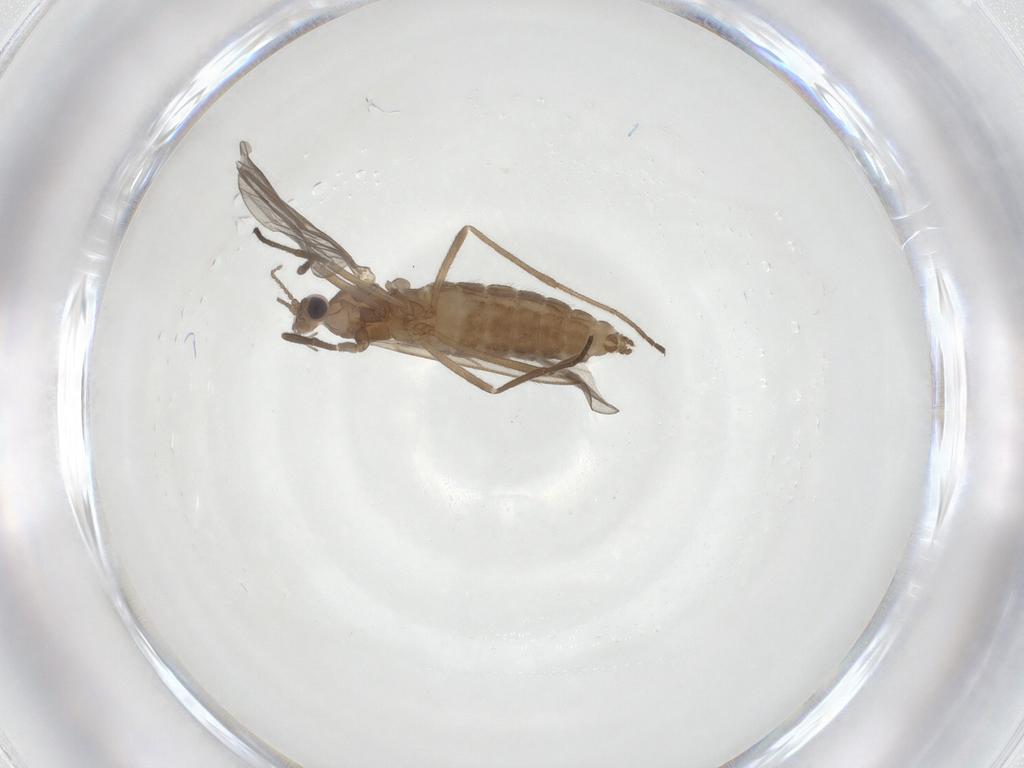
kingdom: Animalia
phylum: Arthropoda
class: Insecta
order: Diptera
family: Cecidomyiidae
